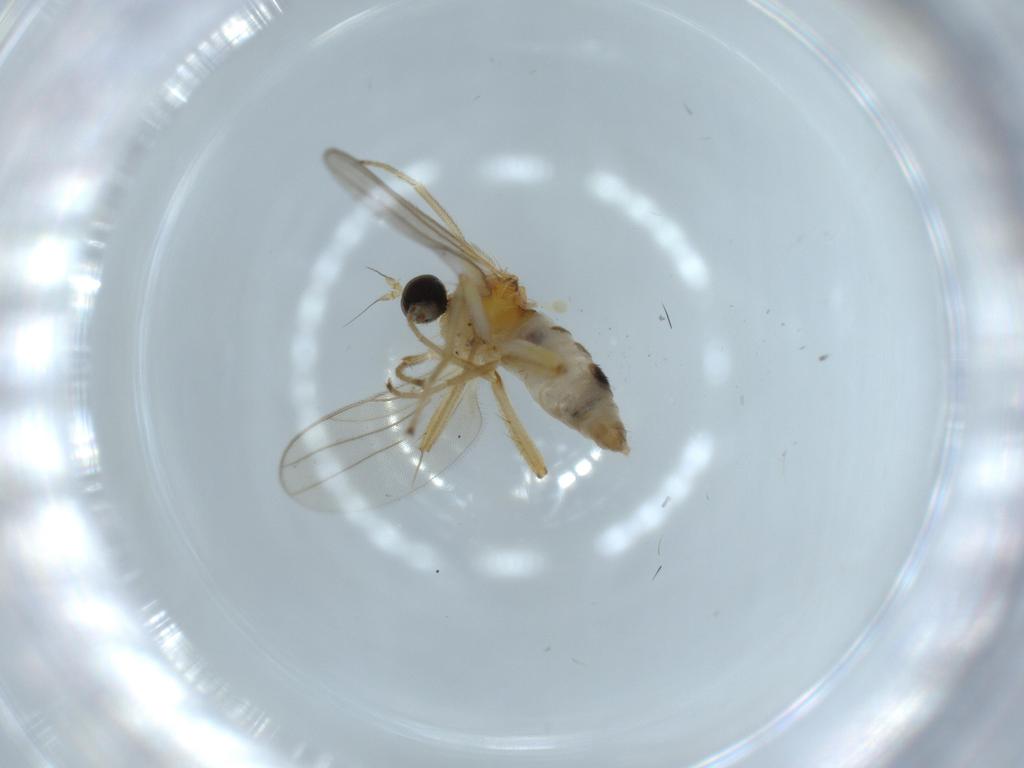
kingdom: Animalia
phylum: Arthropoda
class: Insecta
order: Diptera
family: Hybotidae
